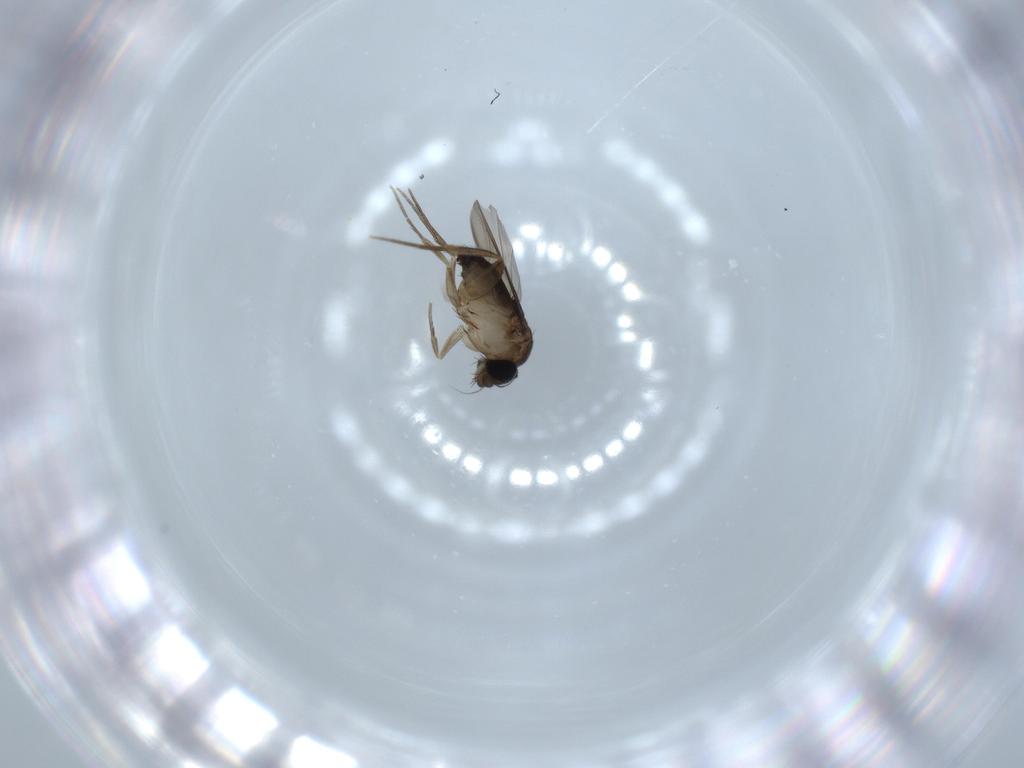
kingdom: Animalia
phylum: Arthropoda
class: Insecta
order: Diptera
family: Phoridae
